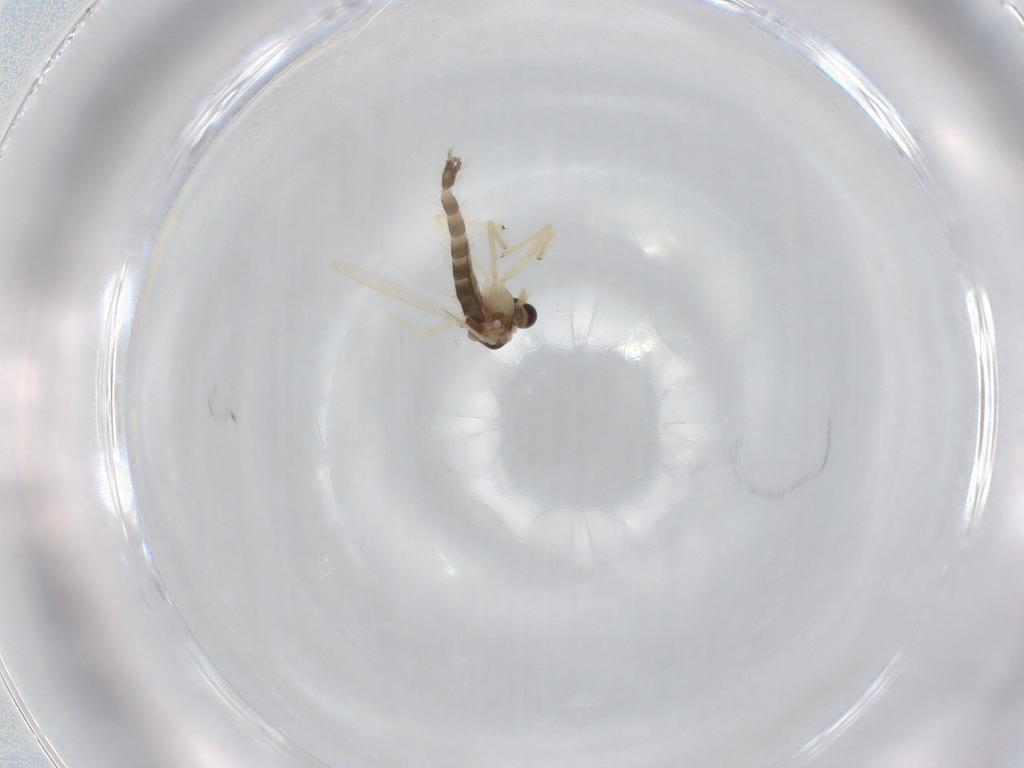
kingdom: Animalia
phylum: Arthropoda
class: Insecta
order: Diptera
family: Chironomidae
